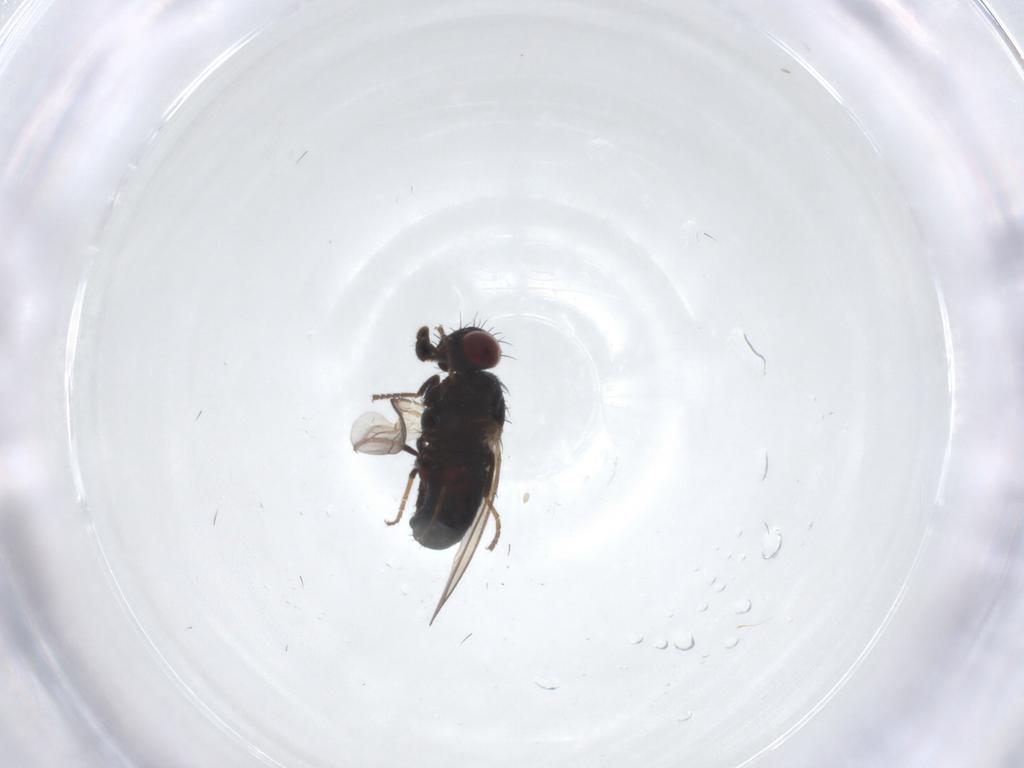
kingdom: Animalia
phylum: Arthropoda
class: Insecta
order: Diptera
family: Carnidae
